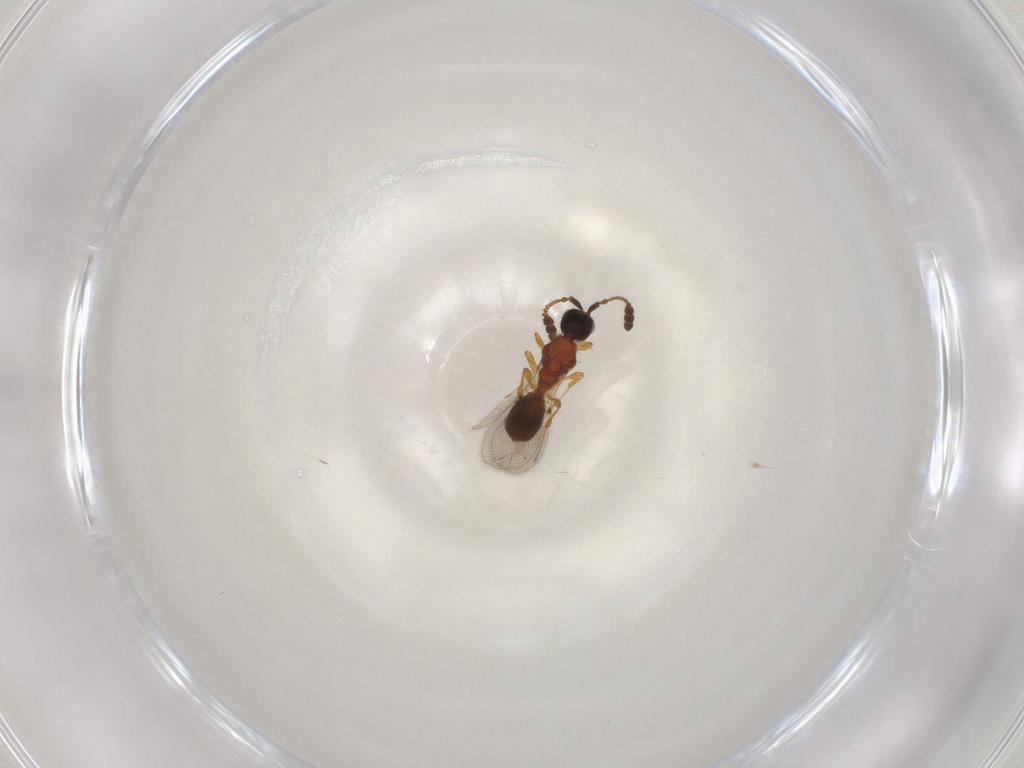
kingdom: Animalia
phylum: Arthropoda
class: Insecta
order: Hymenoptera
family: Diapriidae
